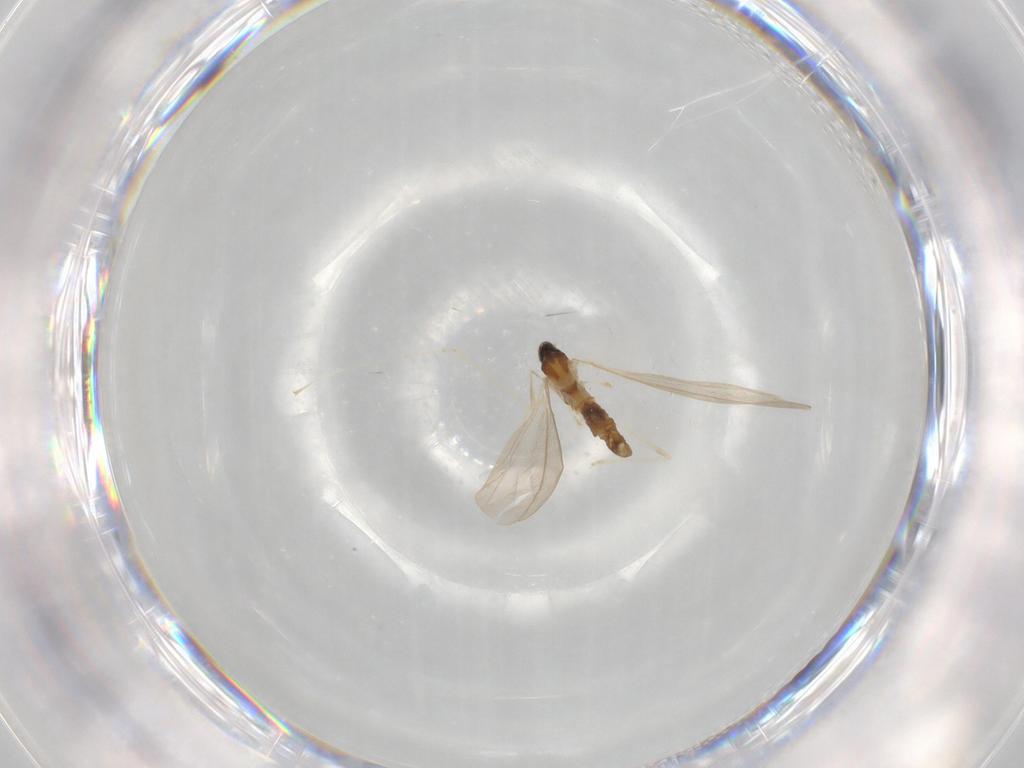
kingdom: Animalia
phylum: Arthropoda
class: Insecta
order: Diptera
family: Cecidomyiidae
